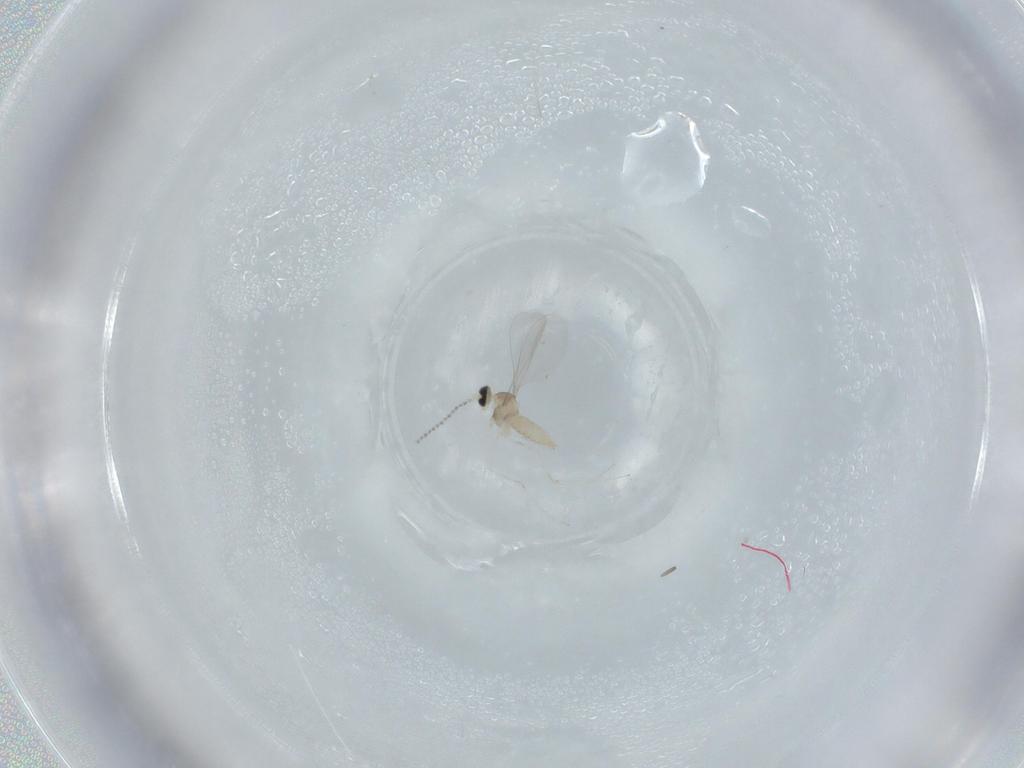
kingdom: Animalia
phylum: Arthropoda
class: Insecta
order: Diptera
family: Cecidomyiidae
